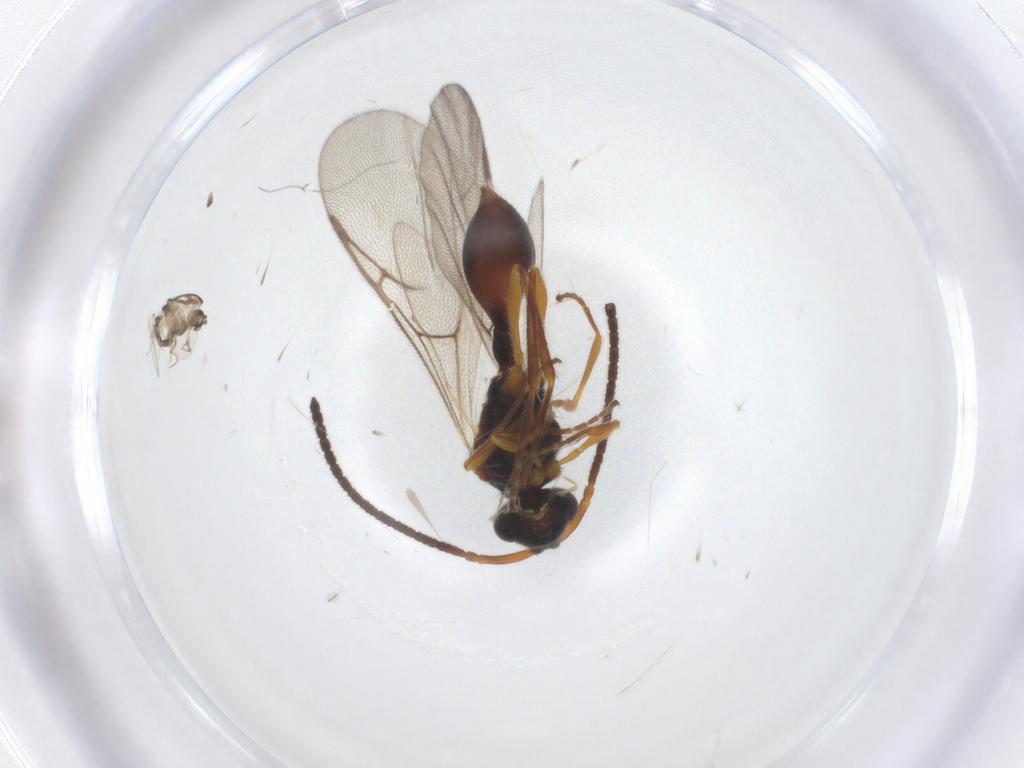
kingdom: Animalia
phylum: Arthropoda
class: Insecta
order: Hymenoptera
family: Diapriidae
